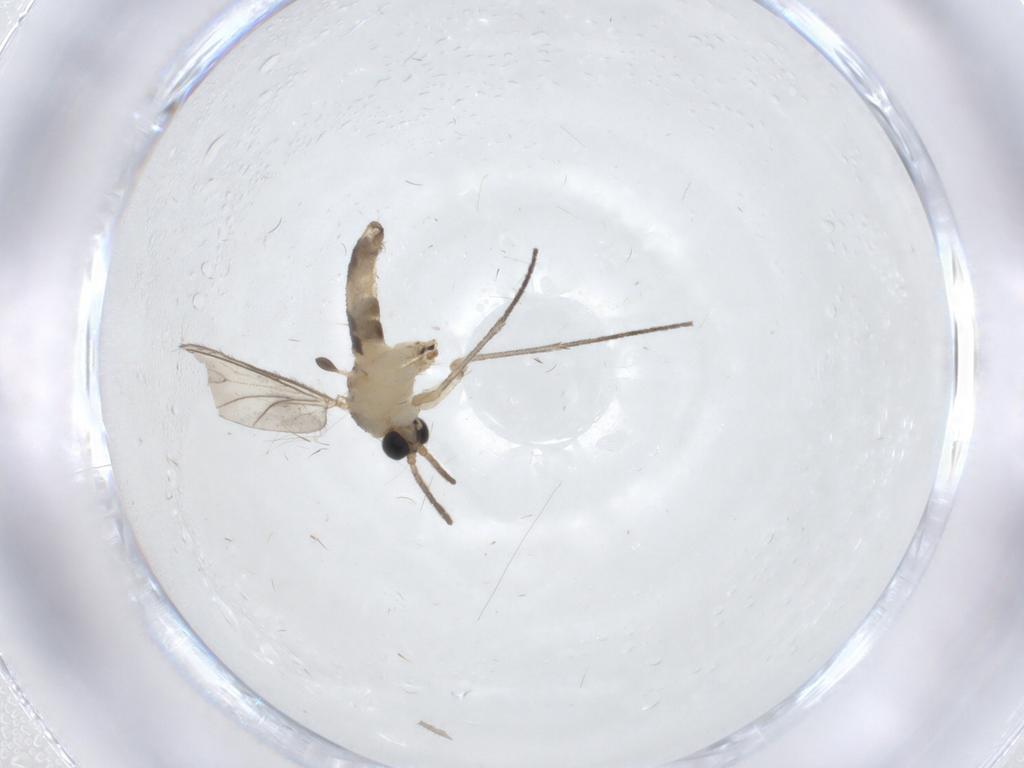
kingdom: Animalia
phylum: Arthropoda
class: Insecta
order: Diptera
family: Sciaridae
